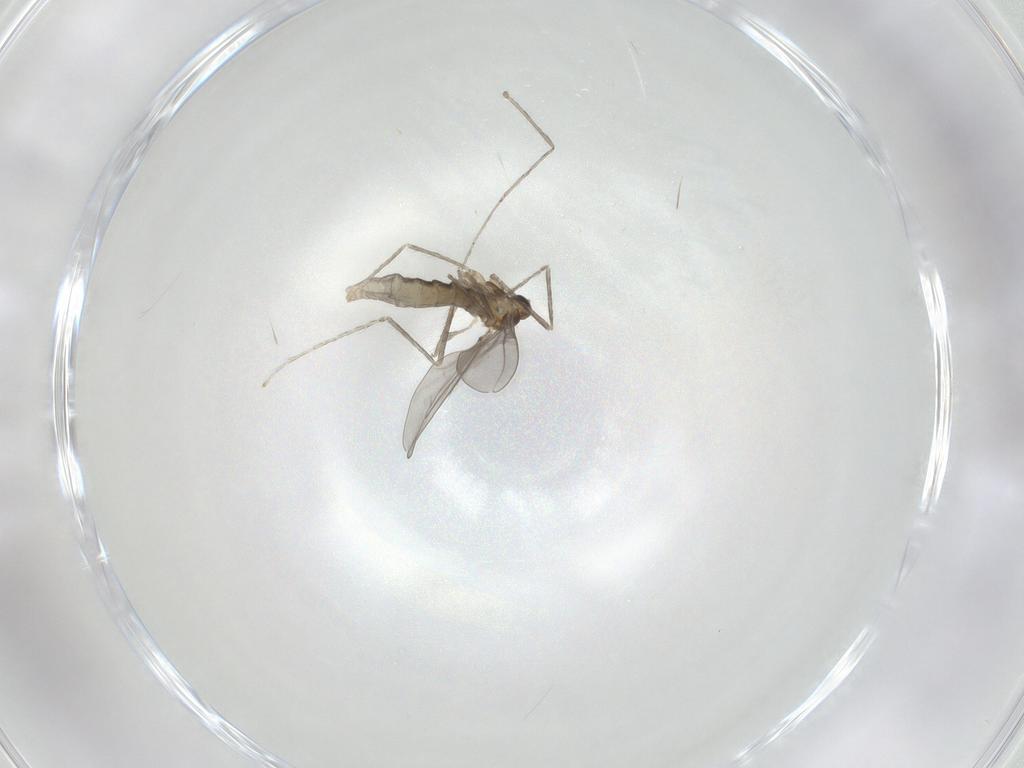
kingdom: Animalia
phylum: Arthropoda
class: Insecta
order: Diptera
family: Cecidomyiidae
